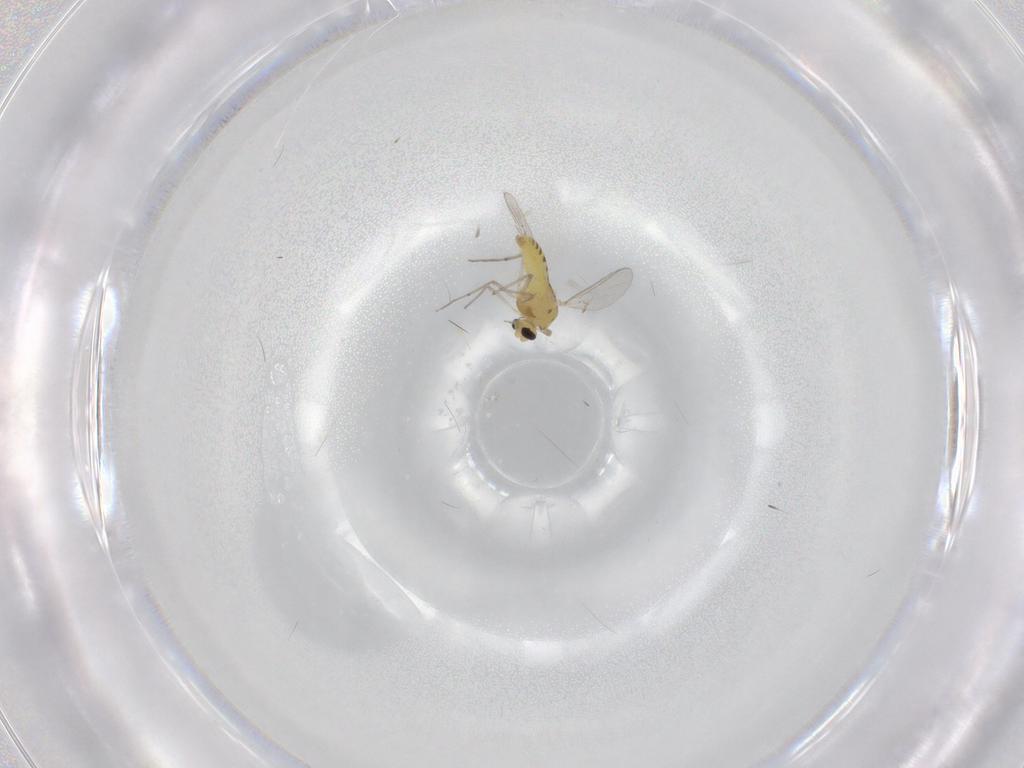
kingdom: Animalia
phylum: Arthropoda
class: Insecta
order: Diptera
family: Chironomidae
